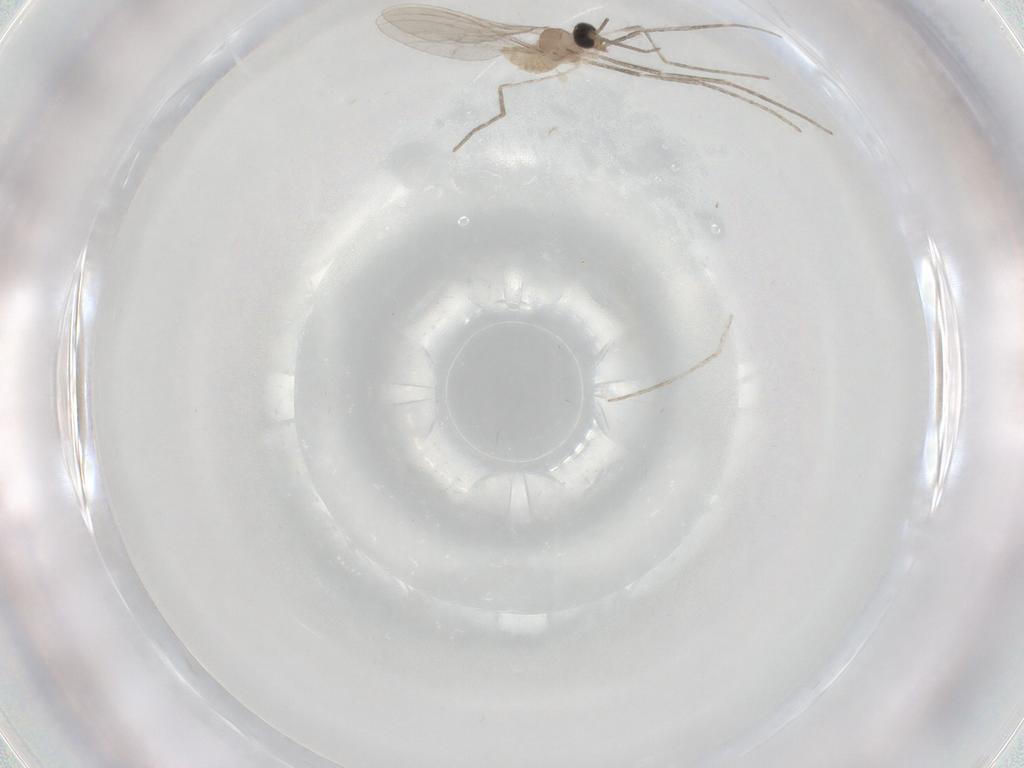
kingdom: Animalia
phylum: Arthropoda
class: Insecta
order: Diptera
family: Cecidomyiidae
